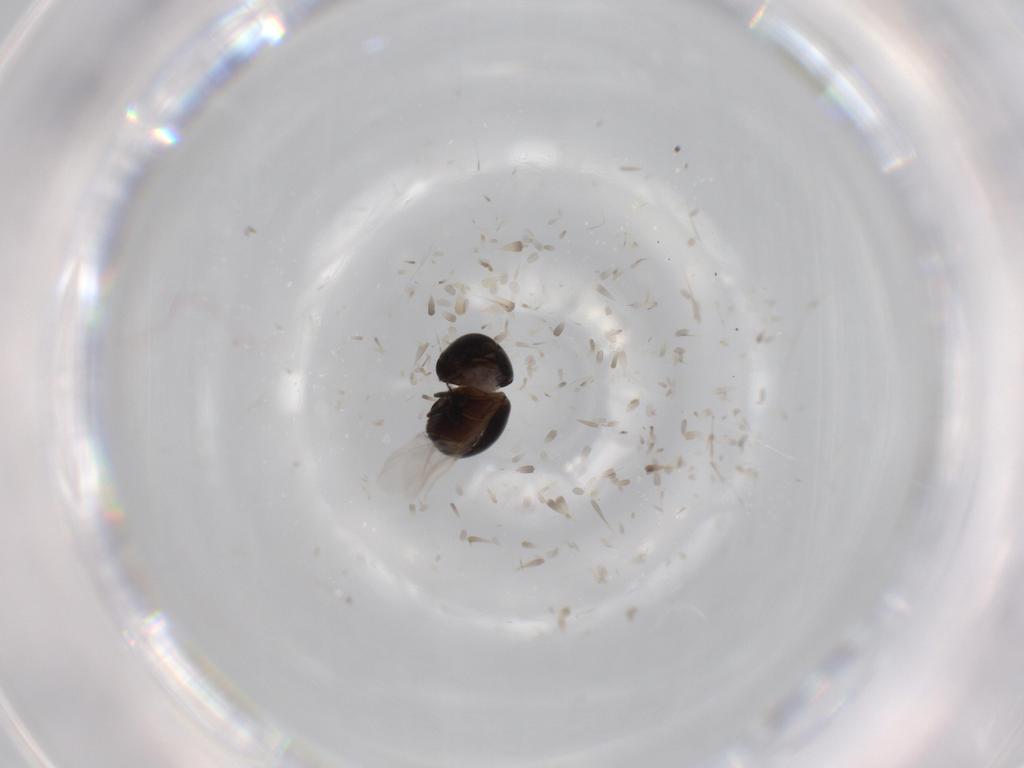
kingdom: Animalia
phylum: Arthropoda
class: Insecta
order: Coleoptera
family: Cybocephalidae
